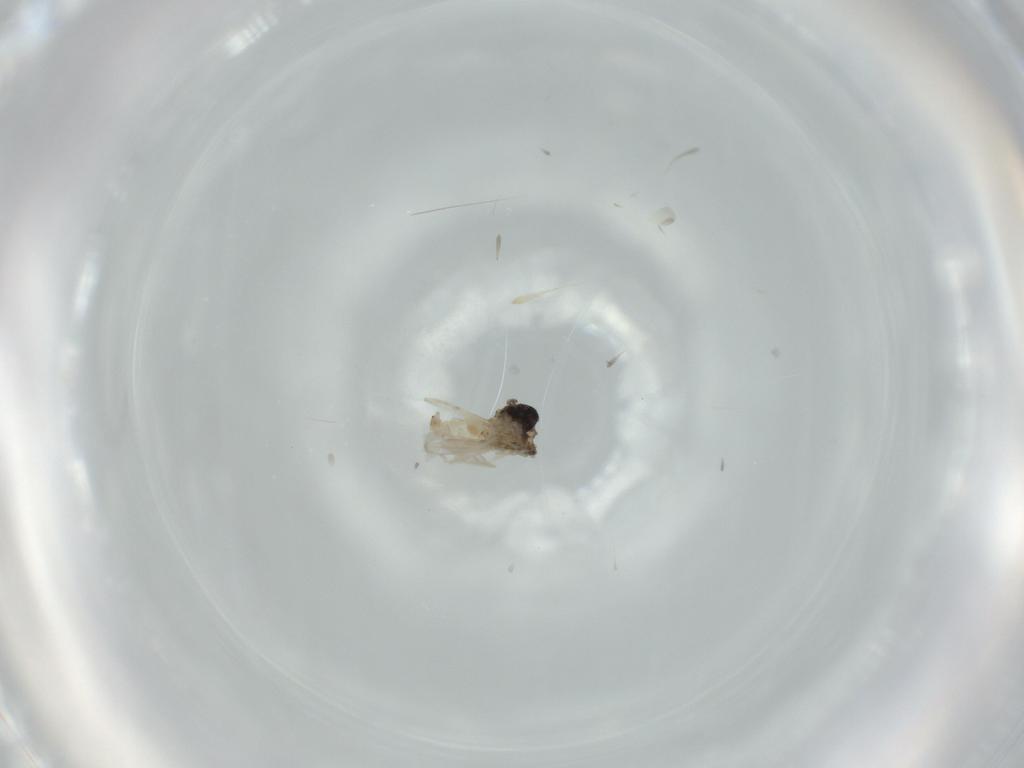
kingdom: Animalia
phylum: Arthropoda
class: Insecta
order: Diptera
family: Cecidomyiidae
